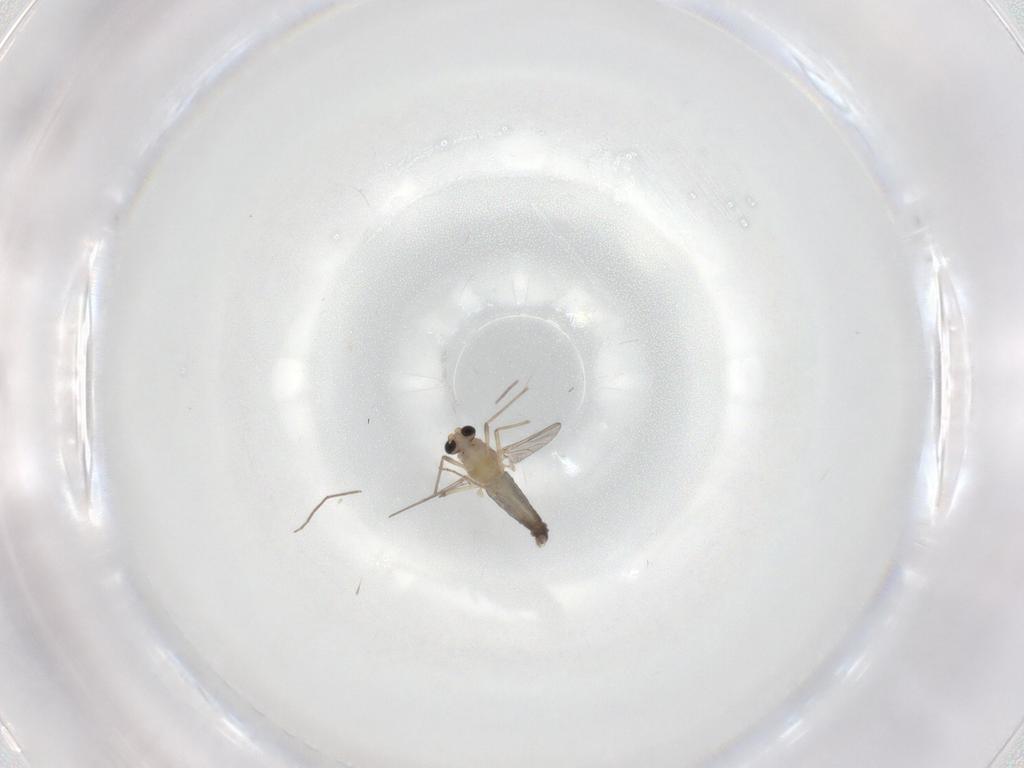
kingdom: Animalia
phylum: Arthropoda
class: Insecta
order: Diptera
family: Chironomidae
